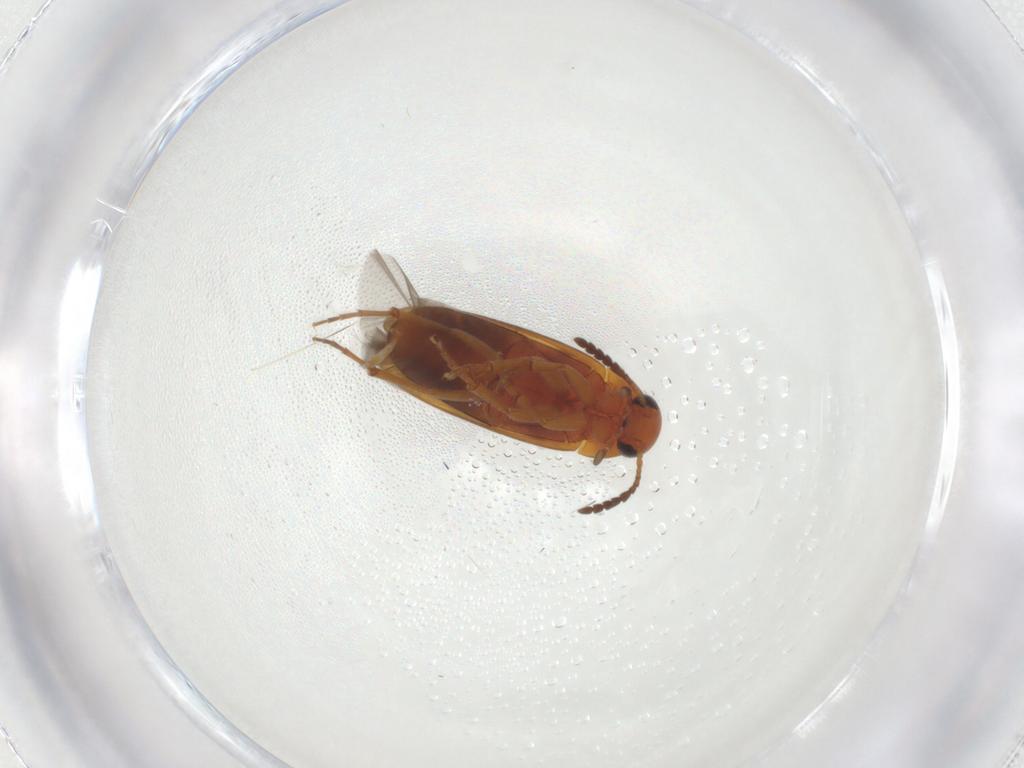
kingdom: Animalia
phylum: Arthropoda
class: Insecta
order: Coleoptera
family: Scraptiidae
